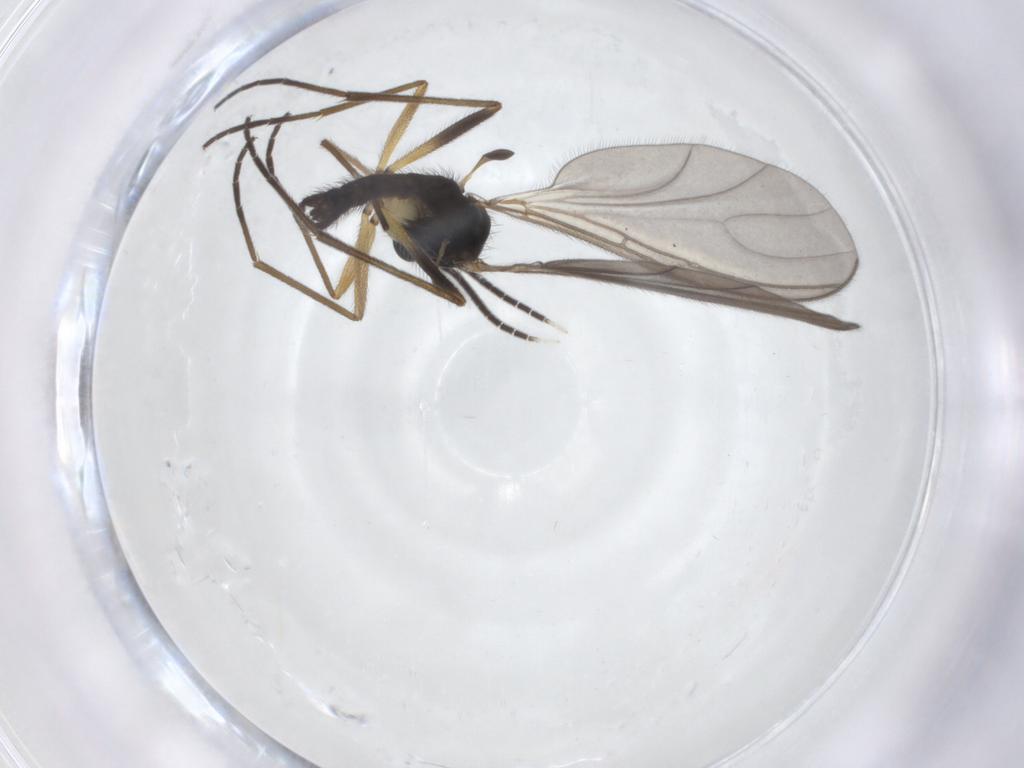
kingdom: Animalia
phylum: Arthropoda
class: Insecta
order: Diptera
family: Sciaridae
